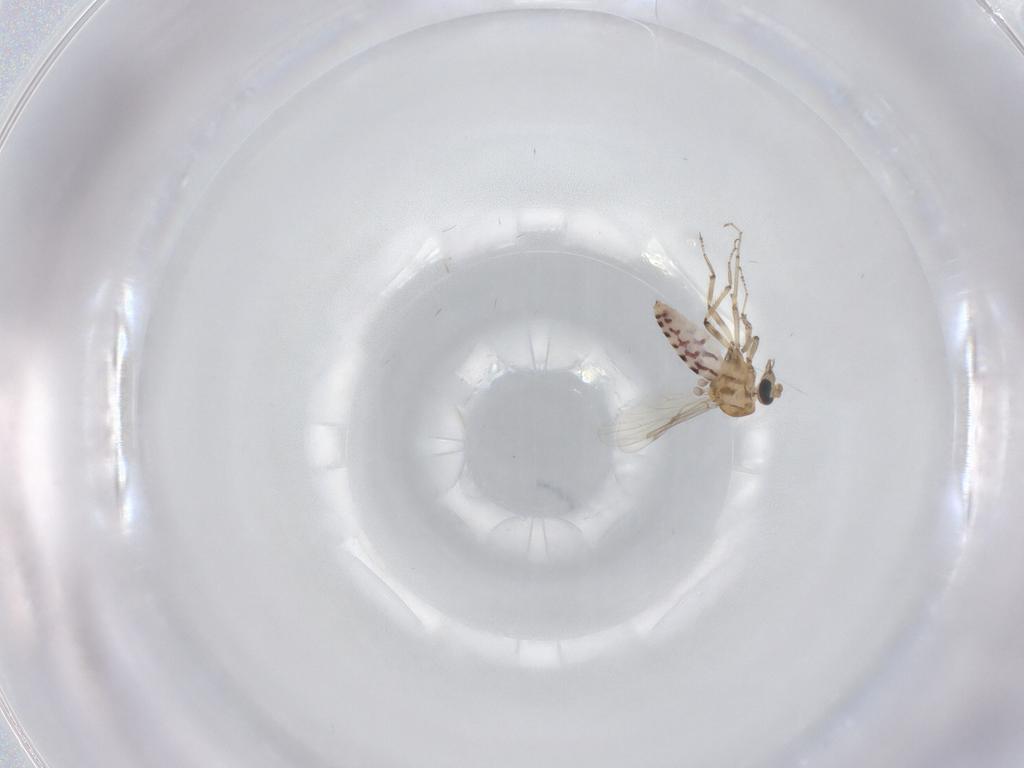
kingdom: Animalia
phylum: Arthropoda
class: Insecta
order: Diptera
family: Ceratopogonidae
